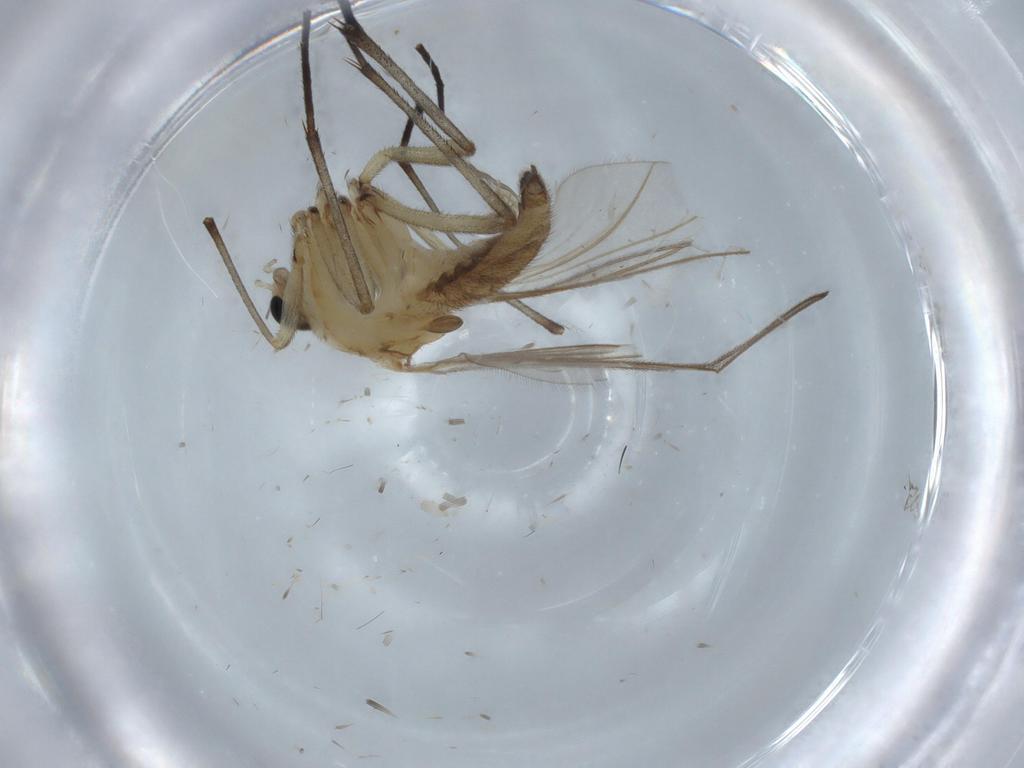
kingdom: Animalia
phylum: Arthropoda
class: Insecta
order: Diptera
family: Sciaridae
